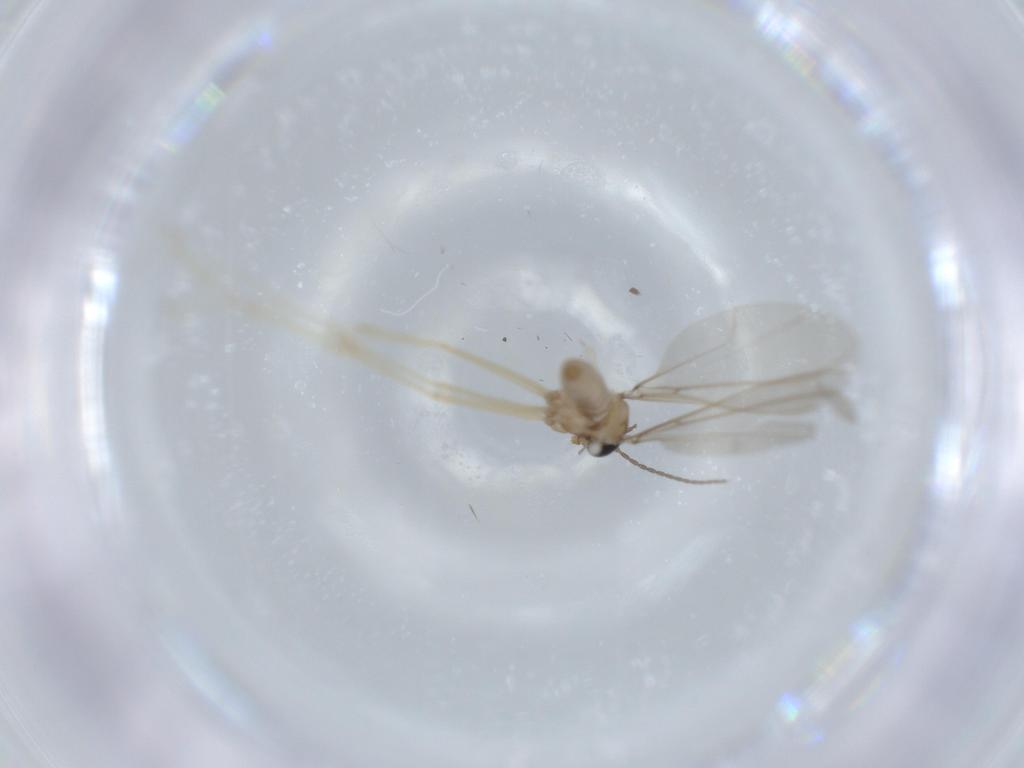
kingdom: Animalia
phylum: Arthropoda
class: Insecta
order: Diptera
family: Cecidomyiidae
